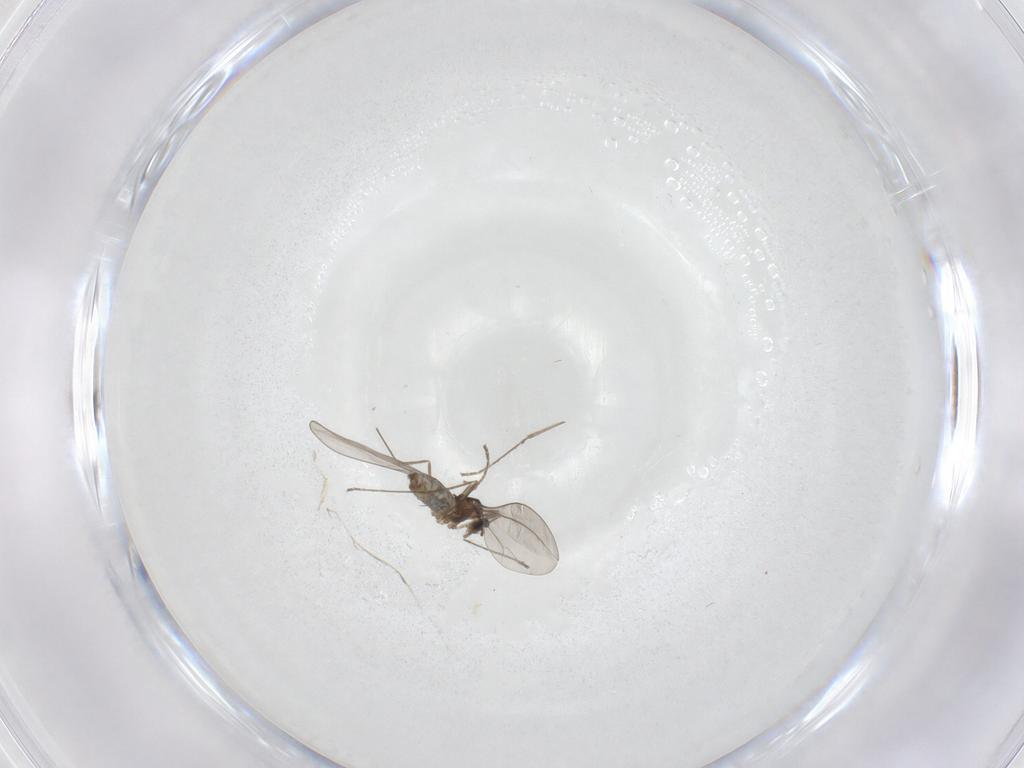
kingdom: Animalia
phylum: Arthropoda
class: Insecta
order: Diptera
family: Cecidomyiidae
